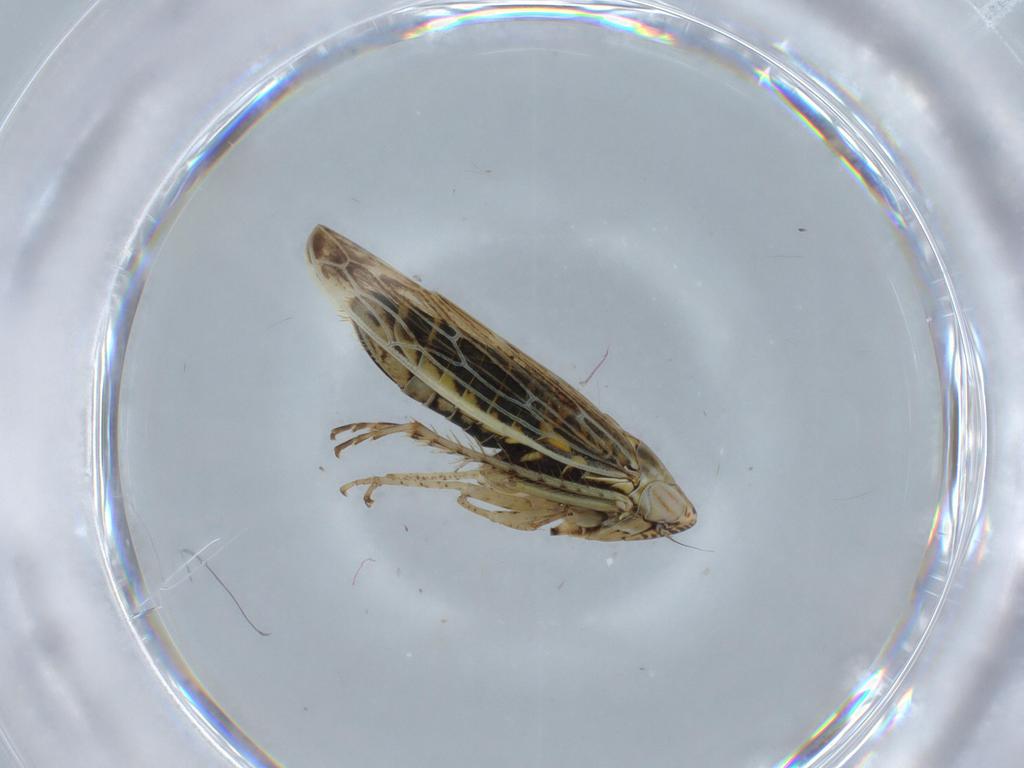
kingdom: Animalia
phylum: Arthropoda
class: Insecta
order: Hemiptera
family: Cicadellidae
